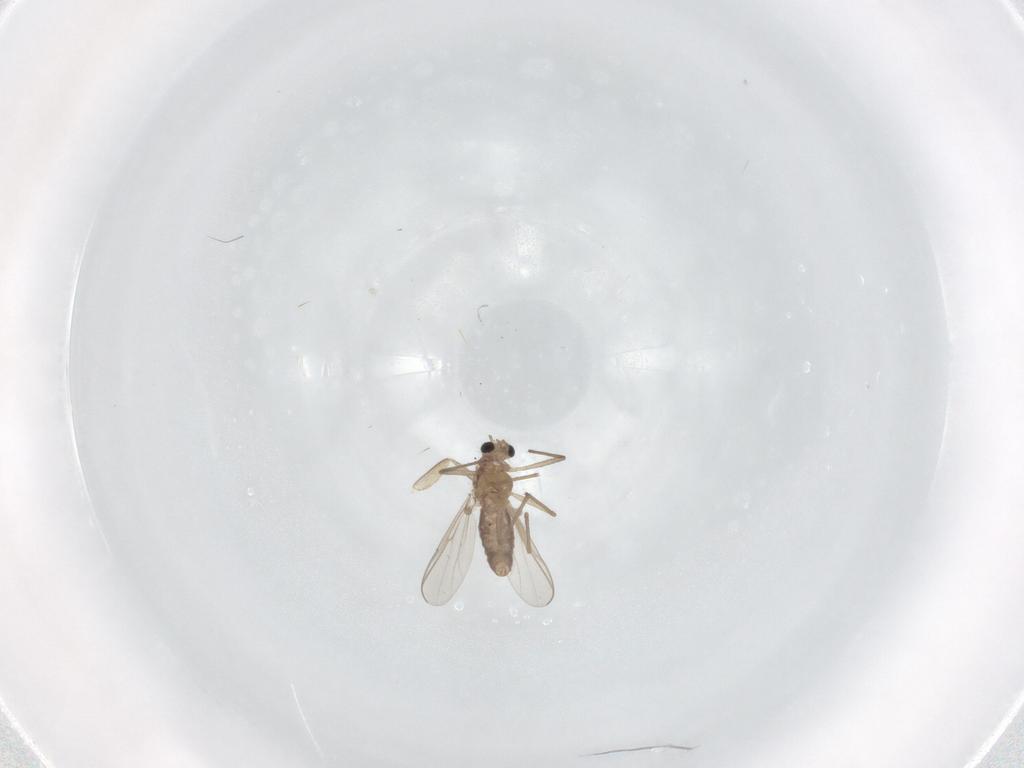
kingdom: Animalia
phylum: Arthropoda
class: Insecta
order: Diptera
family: Chironomidae
